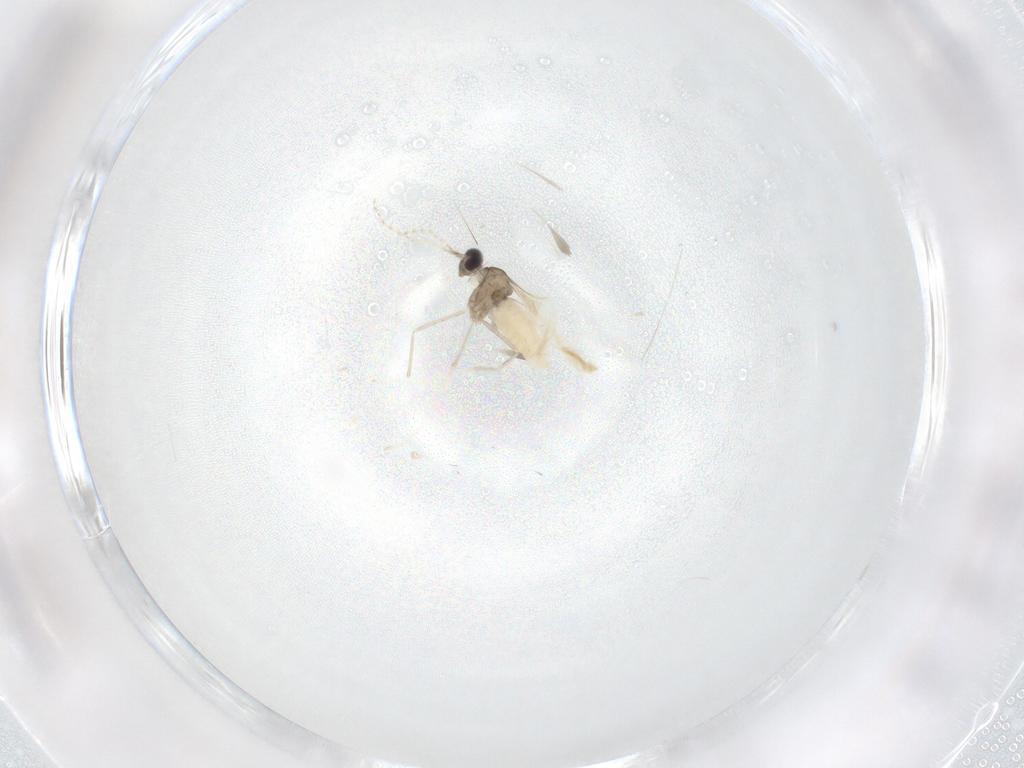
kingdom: Animalia
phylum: Arthropoda
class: Insecta
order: Diptera
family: Cecidomyiidae
